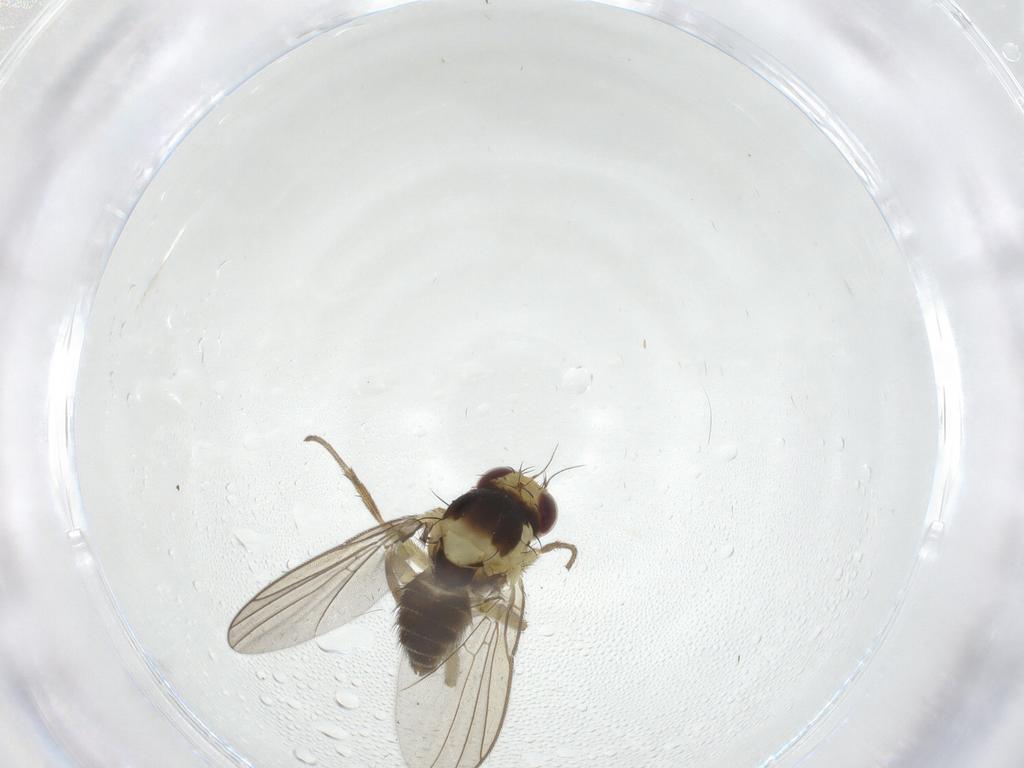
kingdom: Animalia
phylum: Arthropoda
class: Insecta
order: Diptera
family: Agromyzidae
